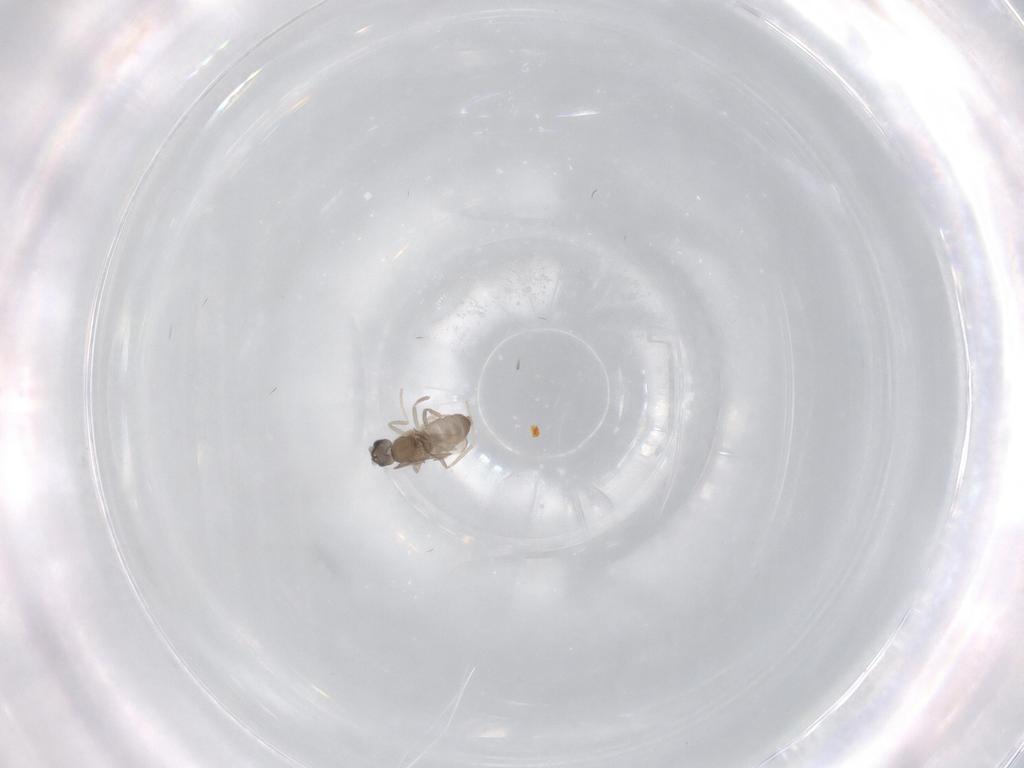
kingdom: Animalia
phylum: Arthropoda
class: Insecta
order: Diptera
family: Cecidomyiidae
